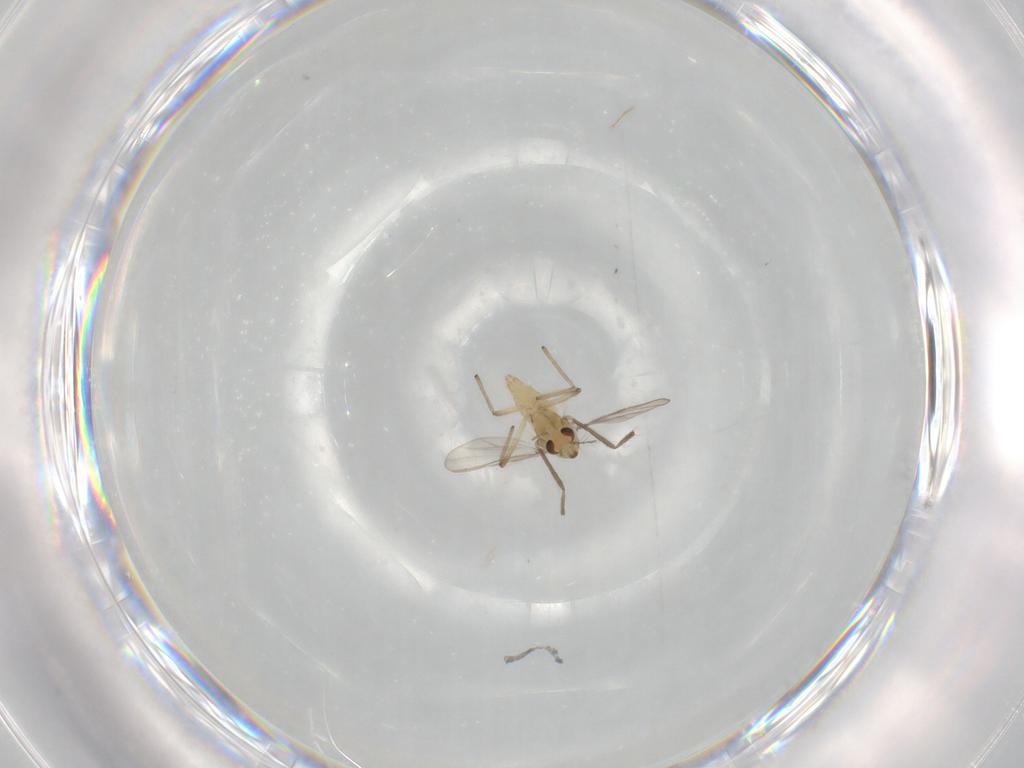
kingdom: Animalia
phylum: Arthropoda
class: Insecta
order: Diptera
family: Chironomidae
